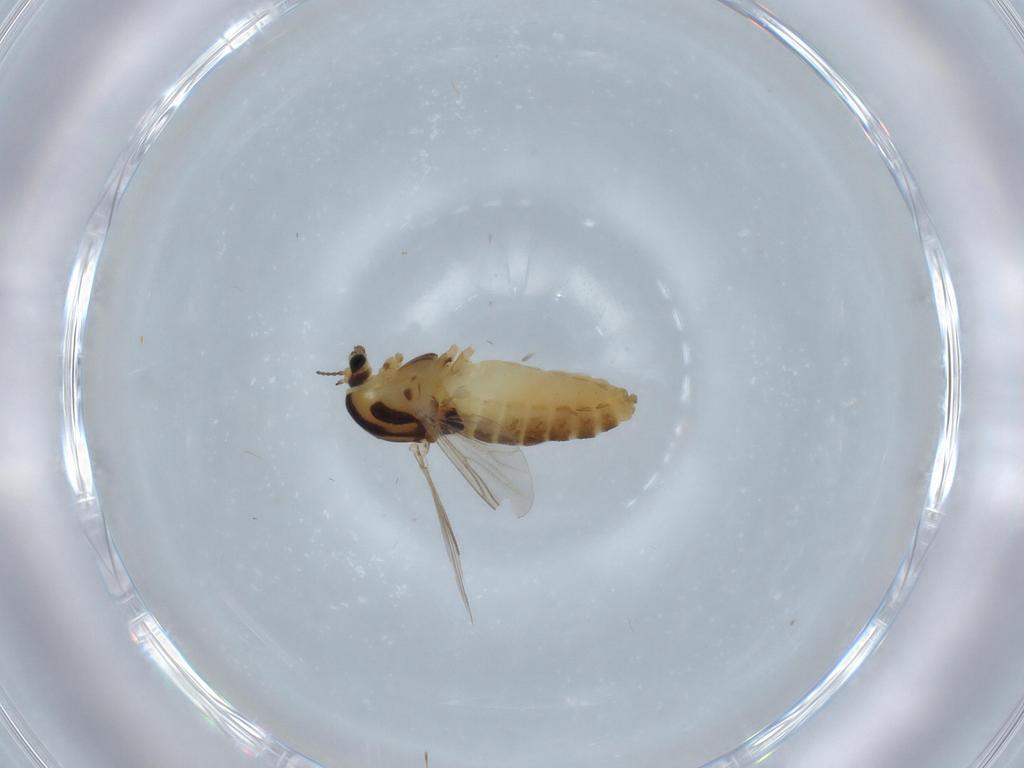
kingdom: Animalia
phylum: Arthropoda
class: Insecta
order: Diptera
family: Chironomidae
